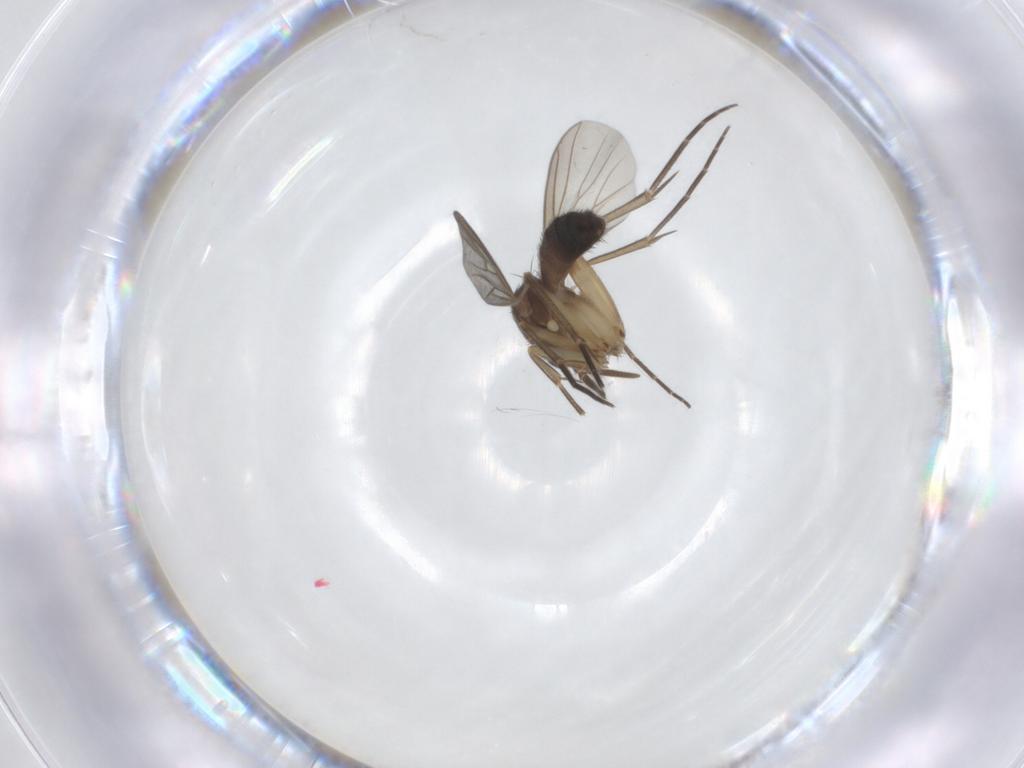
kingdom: Animalia
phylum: Arthropoda
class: Insecta
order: Diptera
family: Mycetophilidae
